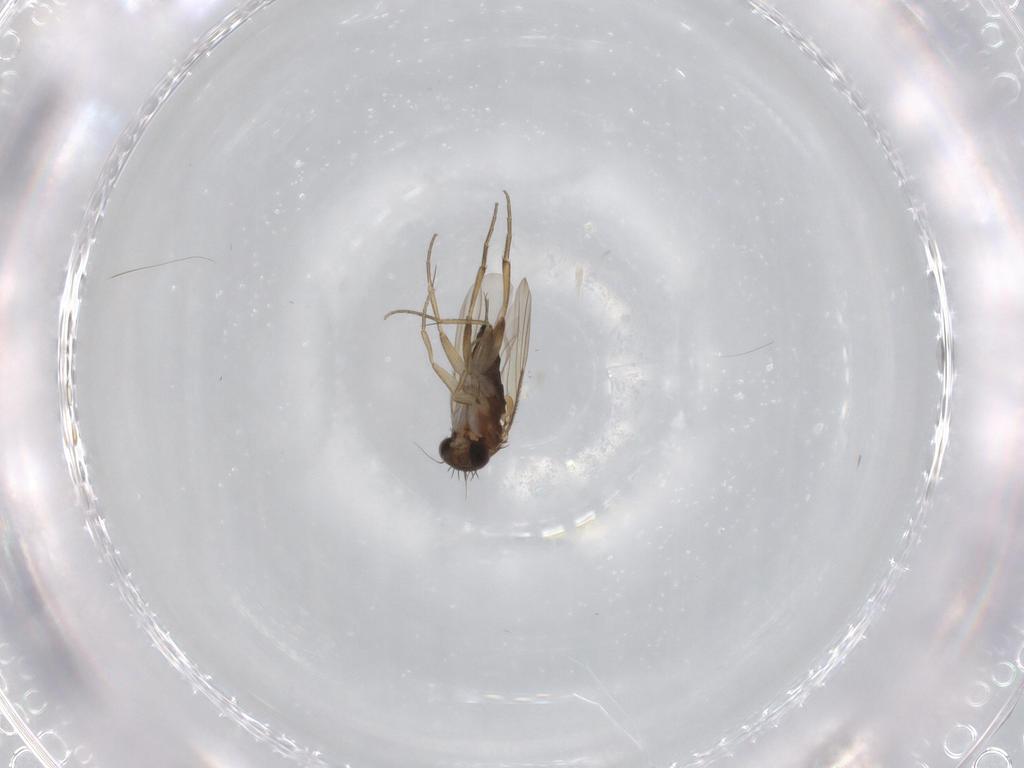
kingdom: Animalia
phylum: Arthropoda
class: Insecta
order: Diptera
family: Phoridae
